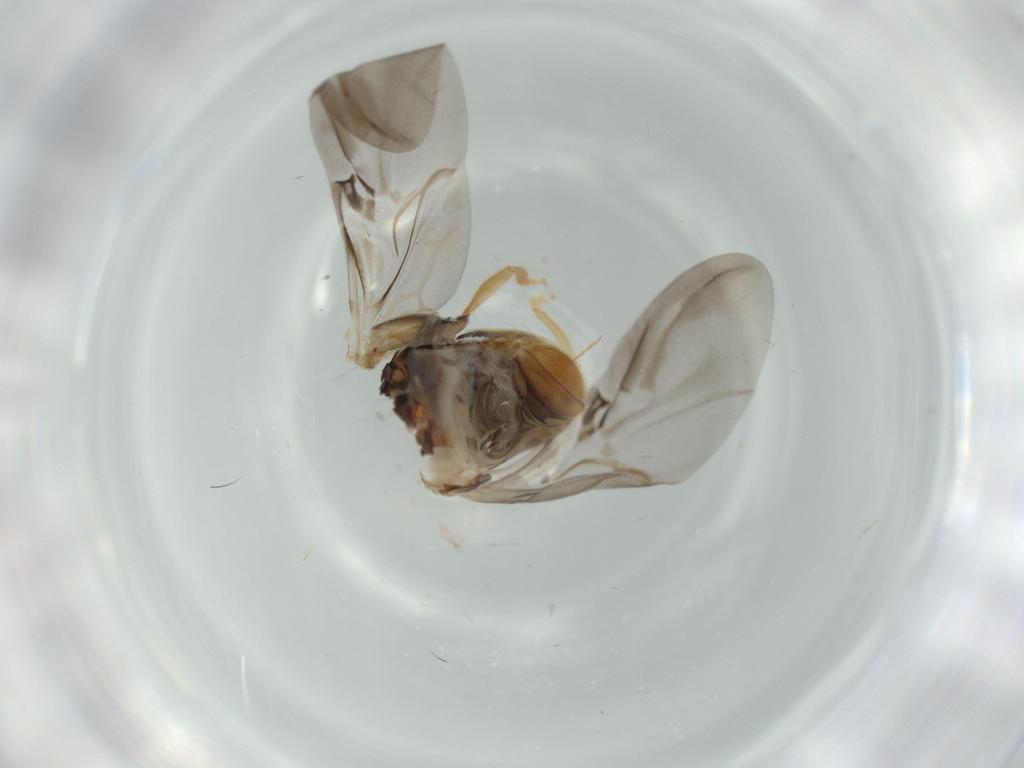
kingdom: Animalia
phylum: Arthropoda
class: Insecta
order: Coleoptera
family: Coccinellidae
